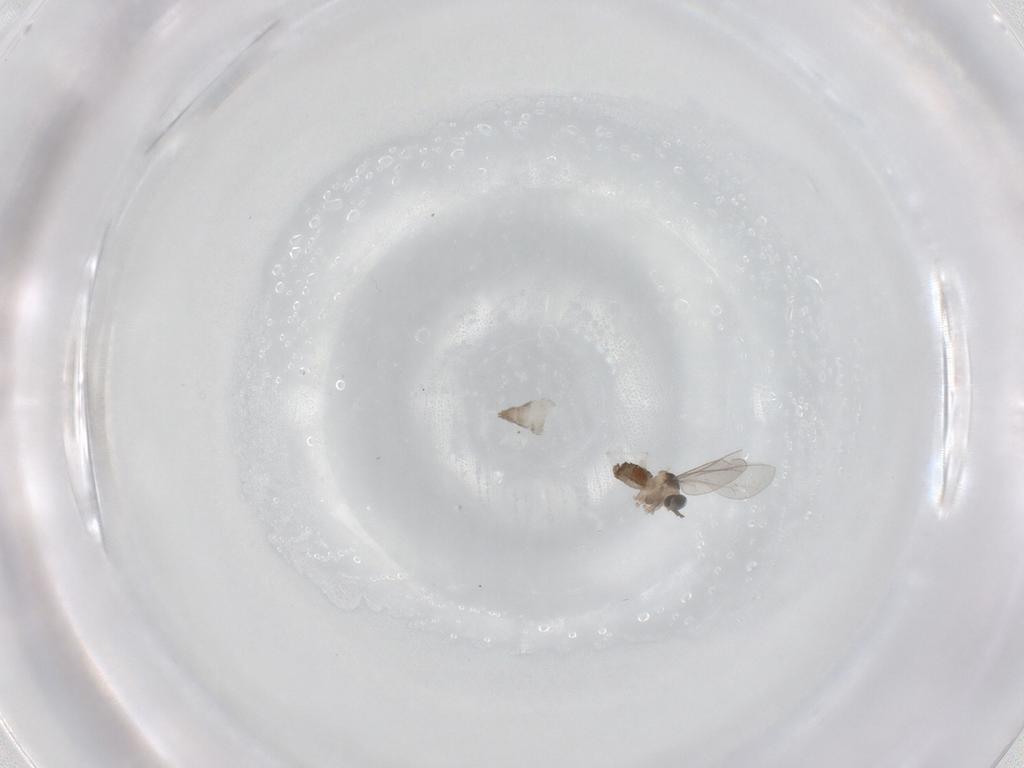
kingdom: Animalia
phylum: Arthropoda
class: Insecta
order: Diptera
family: Cecidomyiidae
